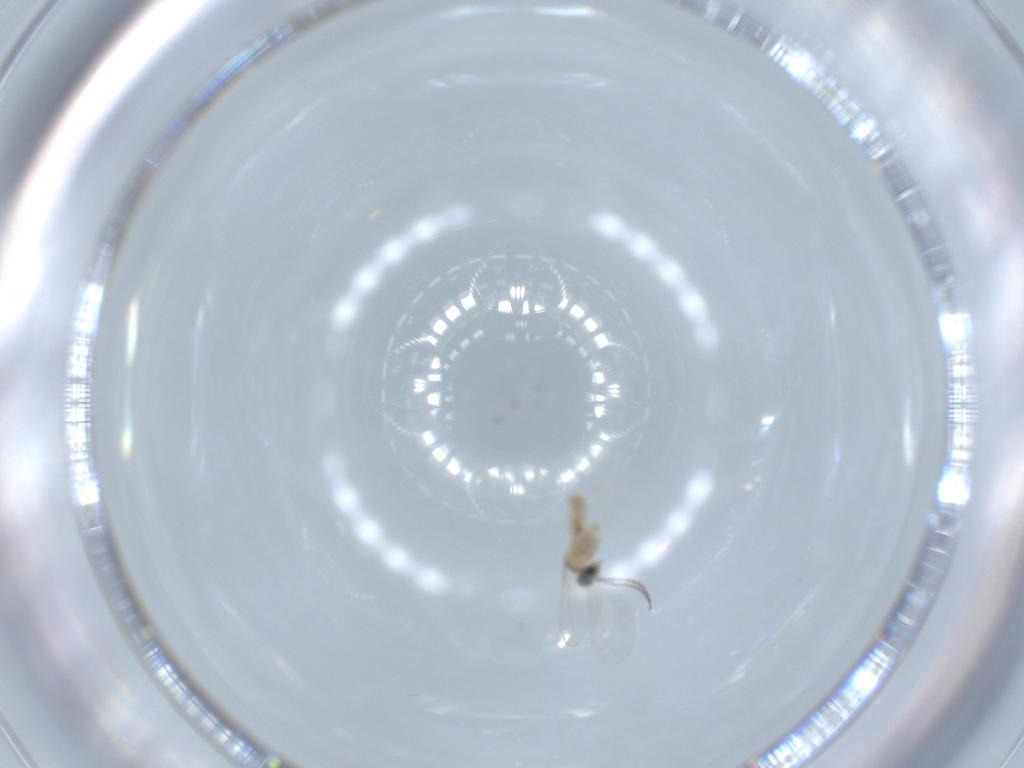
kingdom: Animalia
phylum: Arthropoda
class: Insecta
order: Diptera
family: Cecidomyiidae
